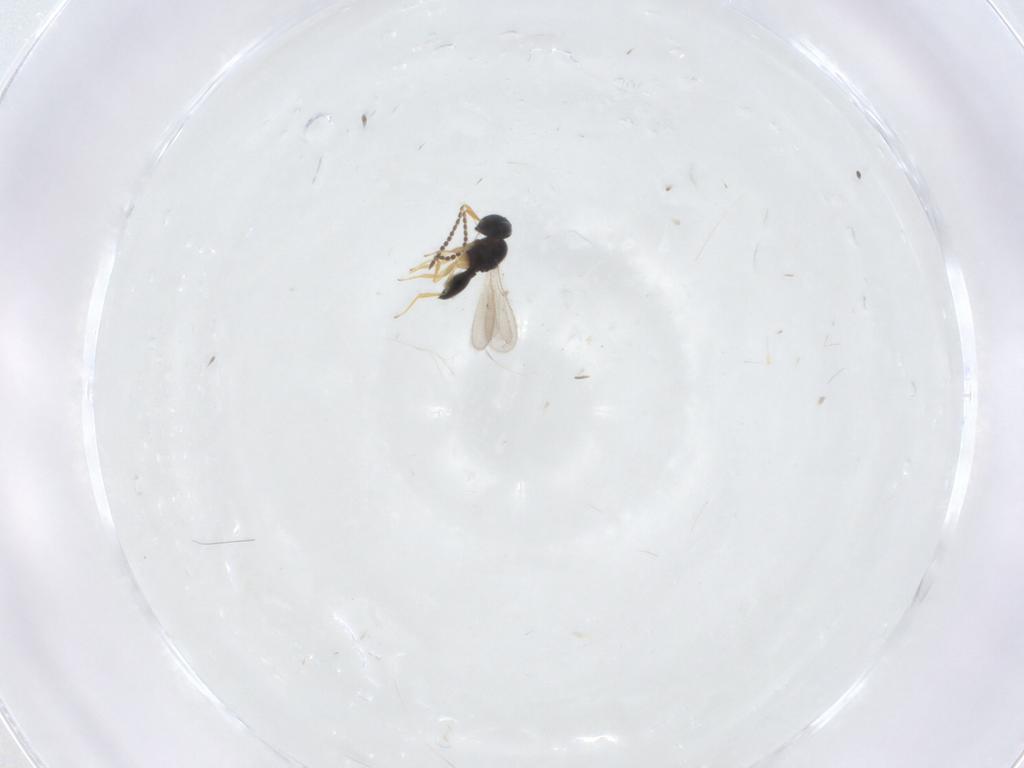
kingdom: Animalia
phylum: Arthropoda
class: Insecta
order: Hymenoptera
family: Scelionidae
